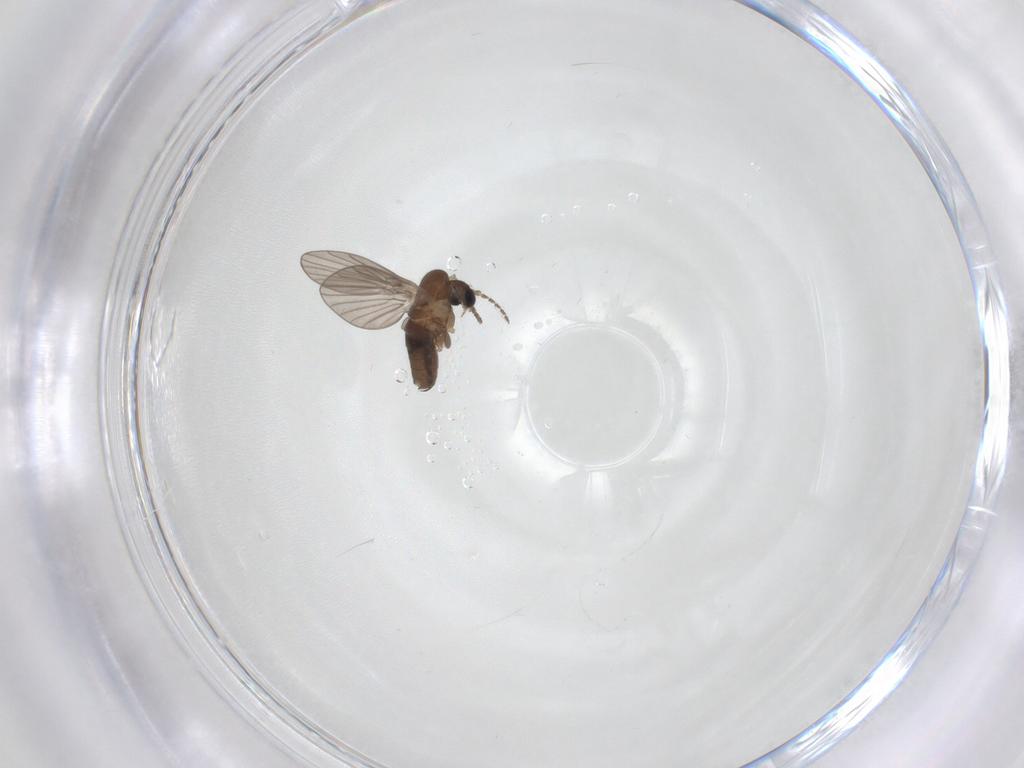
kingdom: Animalia
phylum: Arthropoda
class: Insecta
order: Diptera
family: Psychodidae
